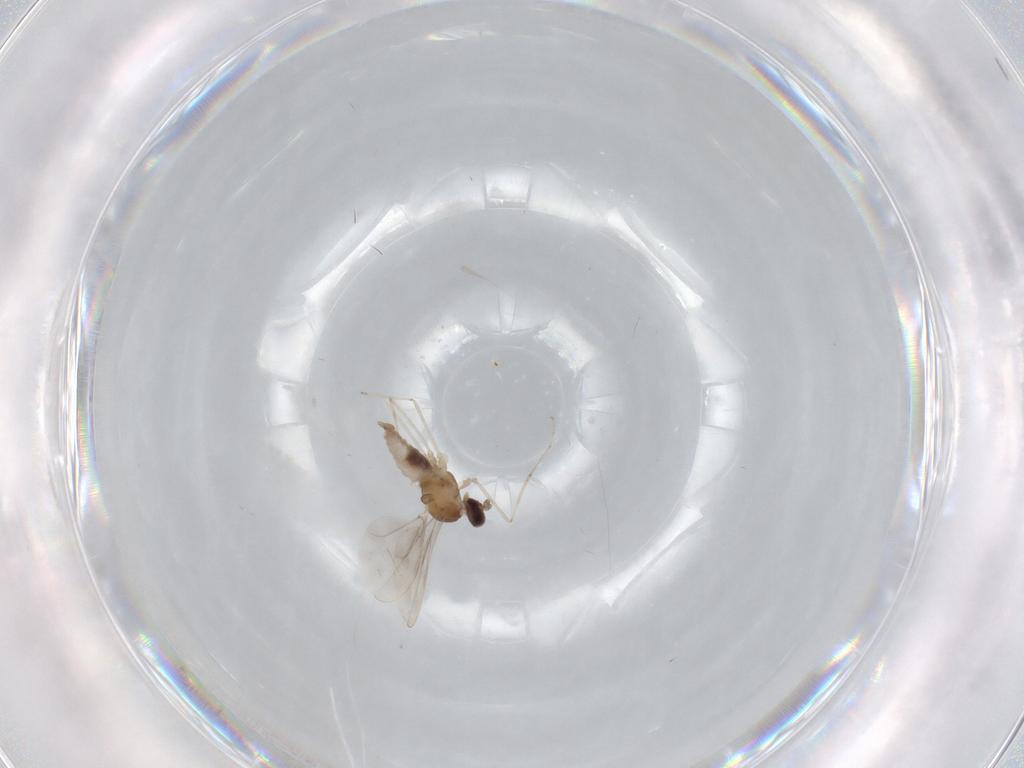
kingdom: Animalia
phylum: Arthropoda
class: Insecta
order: Diptera
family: Cecidomyiidae
